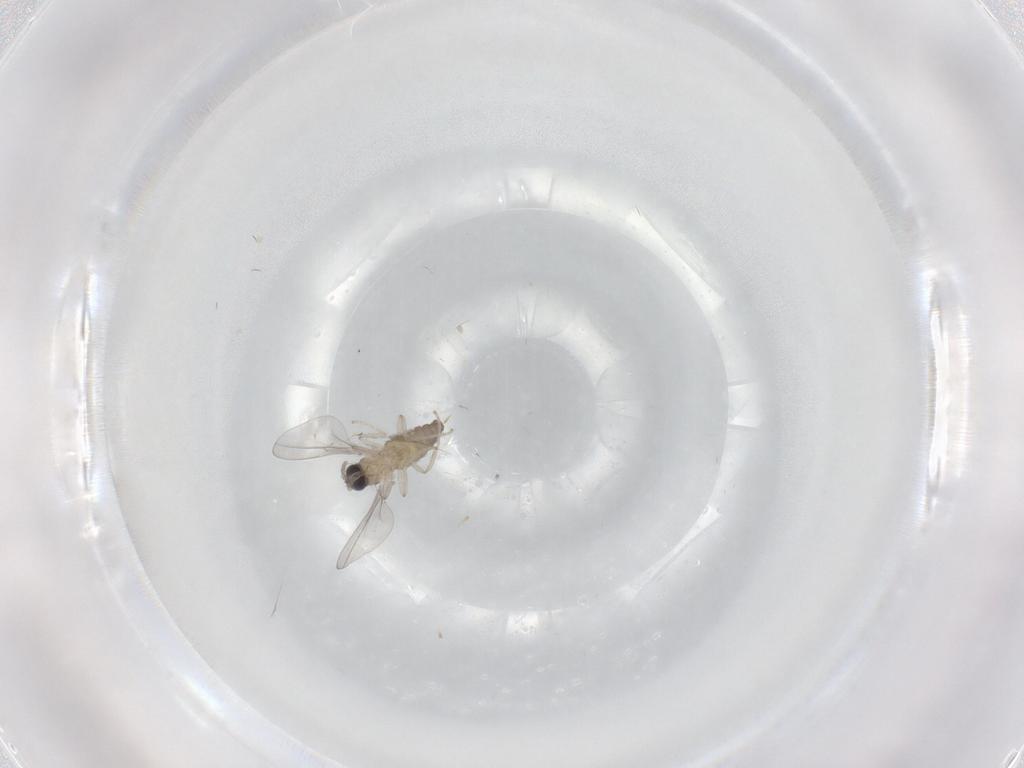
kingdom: Animalia
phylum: Arthropoda
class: Insecta
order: Diptera
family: Cecidomyiidae
